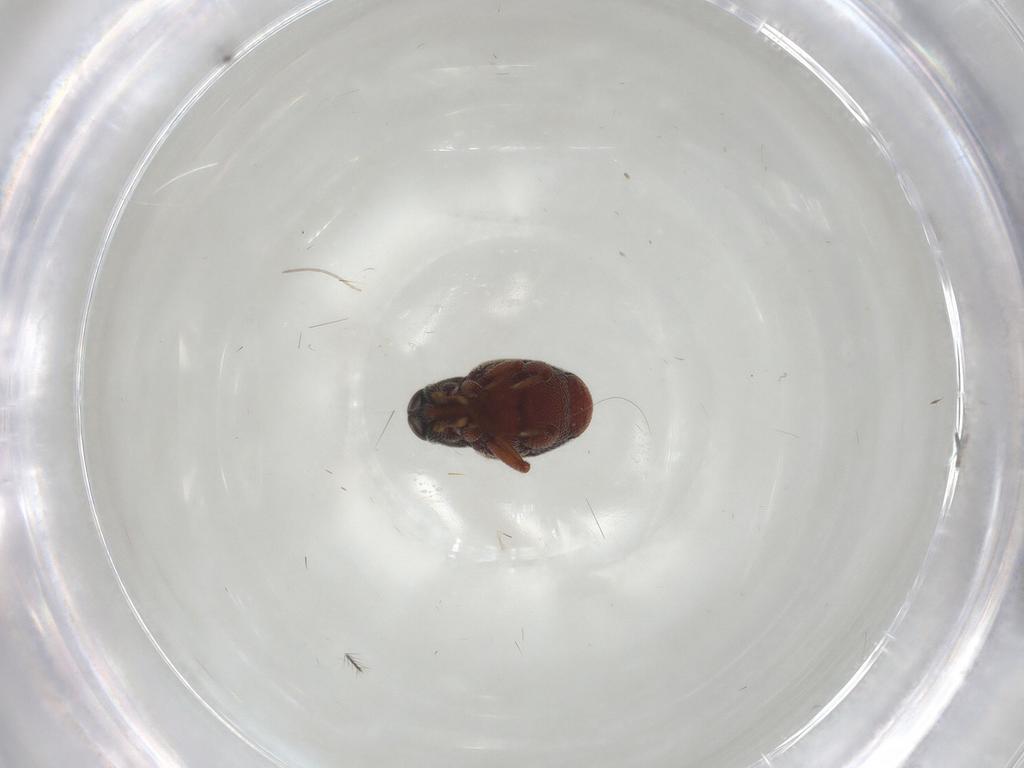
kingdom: Animalia
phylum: Arthropoda
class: Insecta
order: Coleoptera
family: Curculionidae
